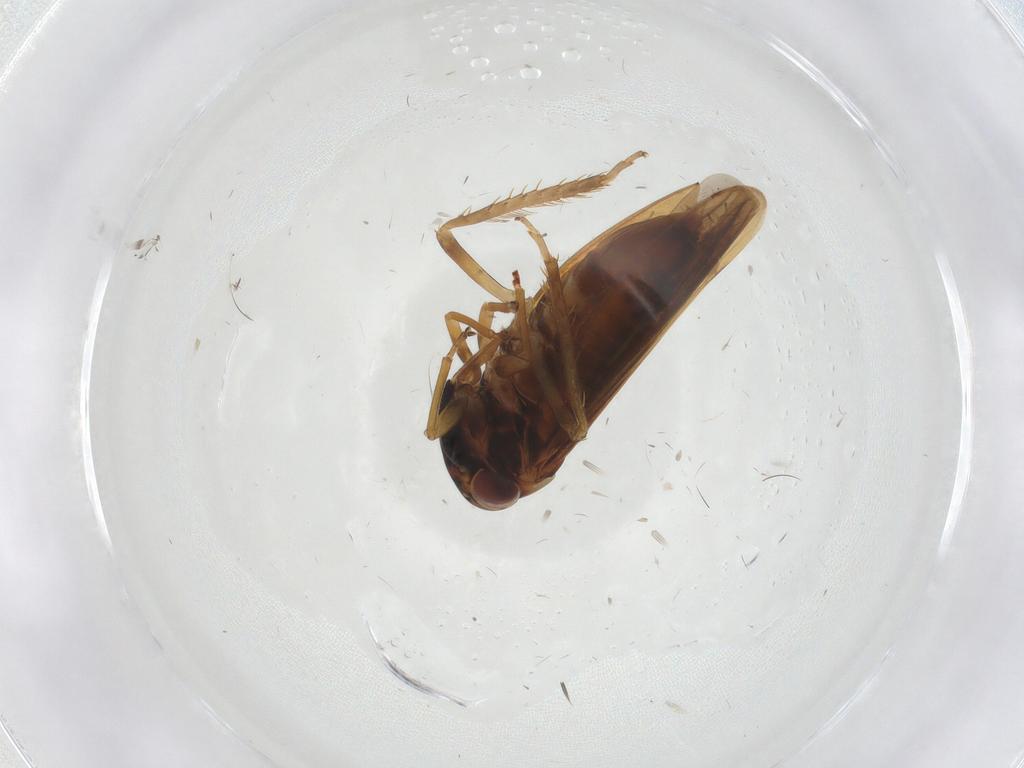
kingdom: Animalia
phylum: Arthropoda
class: Insecta
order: Hemiptera
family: Cicadellidae
